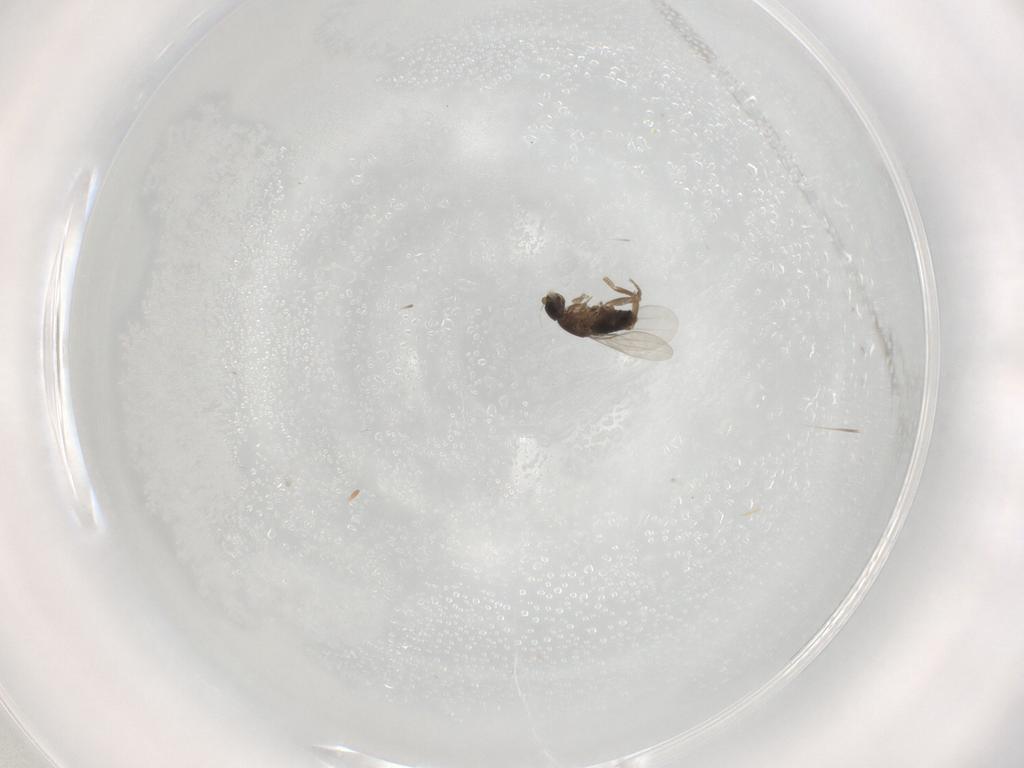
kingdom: Animalia
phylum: Arthropoda
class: Insecta
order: Diptera
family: Phoridae
